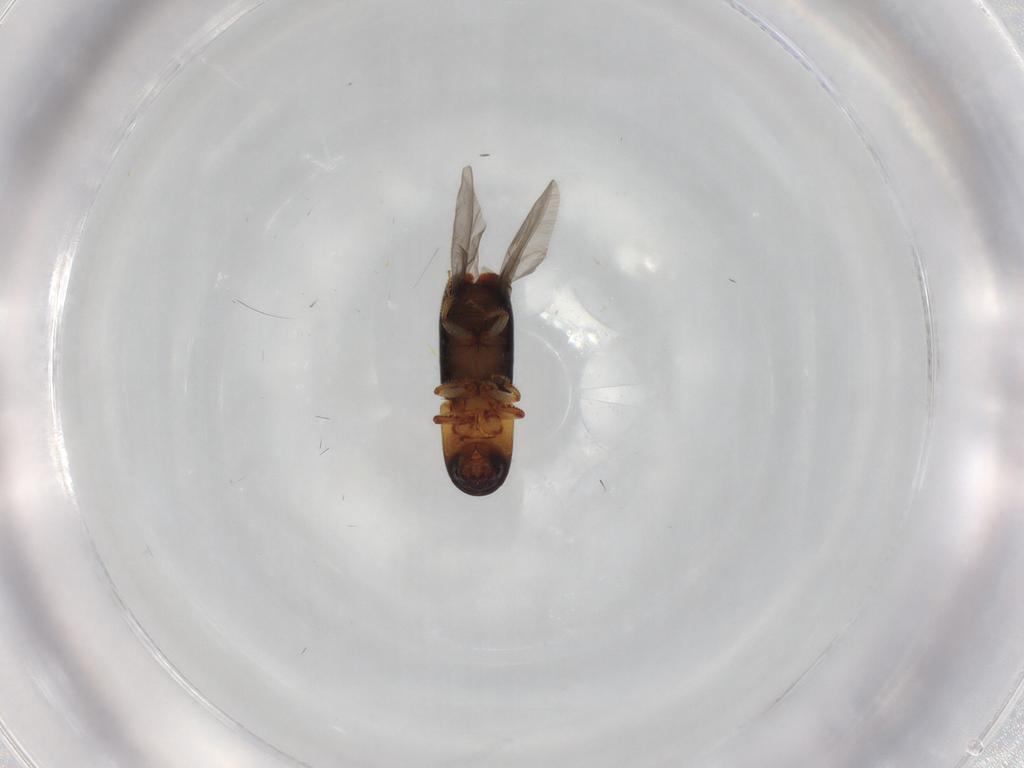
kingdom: Animalia
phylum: Arthropoda
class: Insecta
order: Coleoptera
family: Curculionidae
